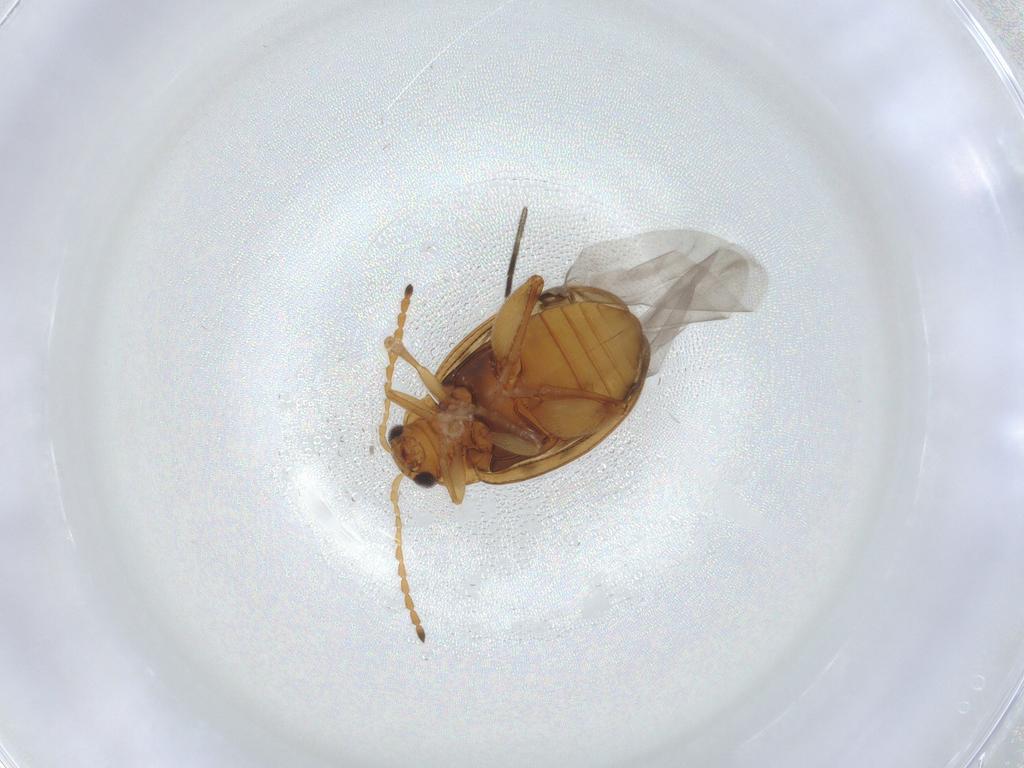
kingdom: Animalia
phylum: Arthropoda
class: Insecta
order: Coleoptera
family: Chrysomelidae
